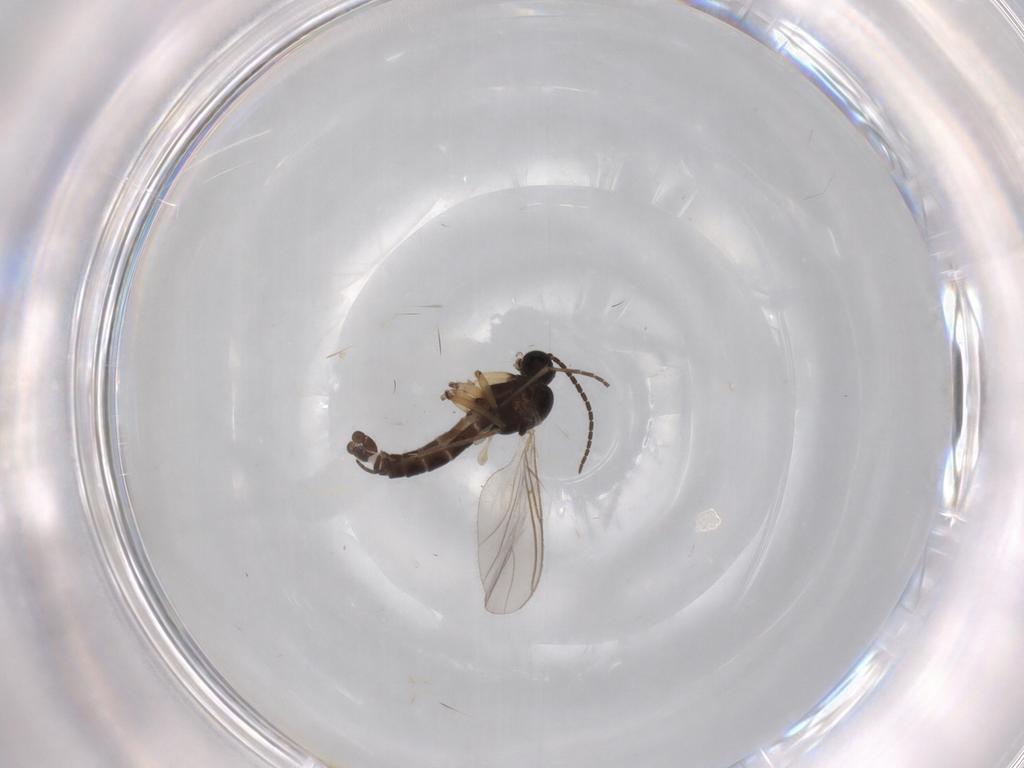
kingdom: Animalia
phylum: Arthropoda
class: Insecta
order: Diptera
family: Sciaridae
